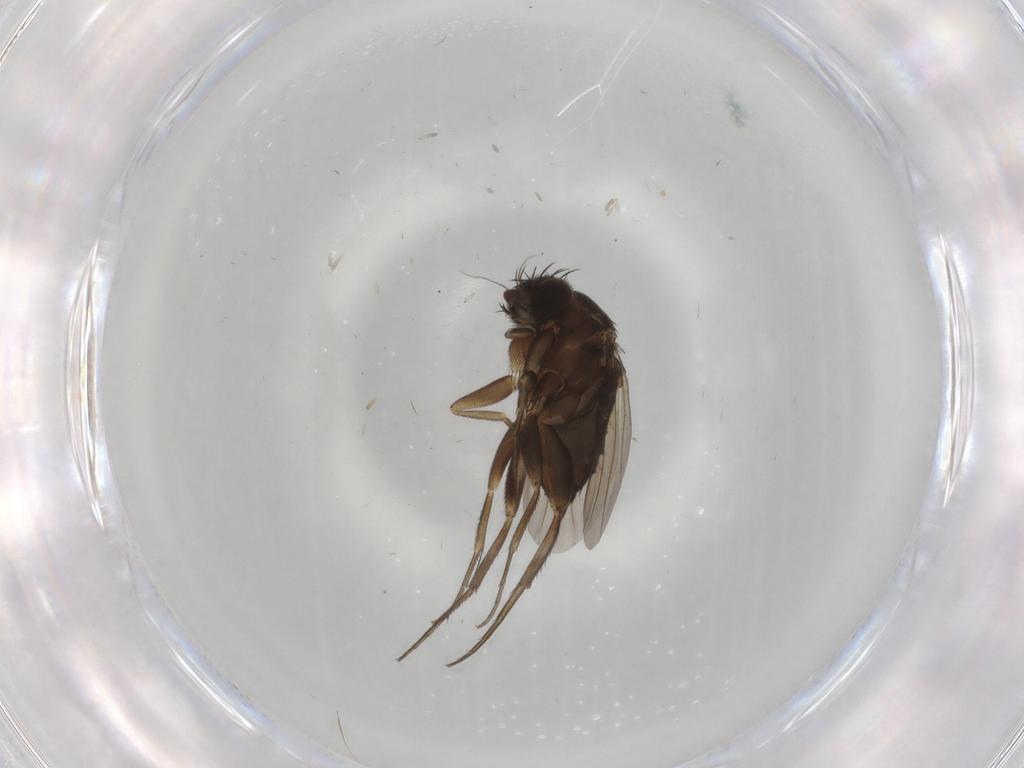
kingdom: Animalia
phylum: Arthropoda
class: Insecta
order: Diptera
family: Phoridae
